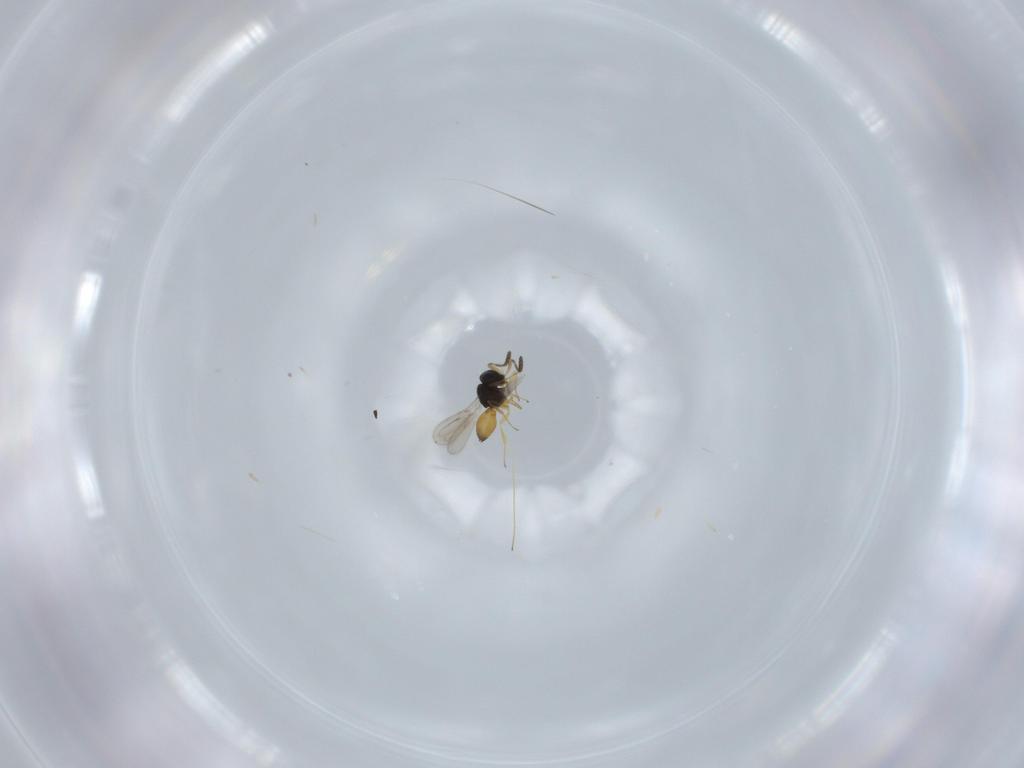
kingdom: Animalia
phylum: Arthropoda
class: Insecta
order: Hymenoptera
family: Scelionidae
